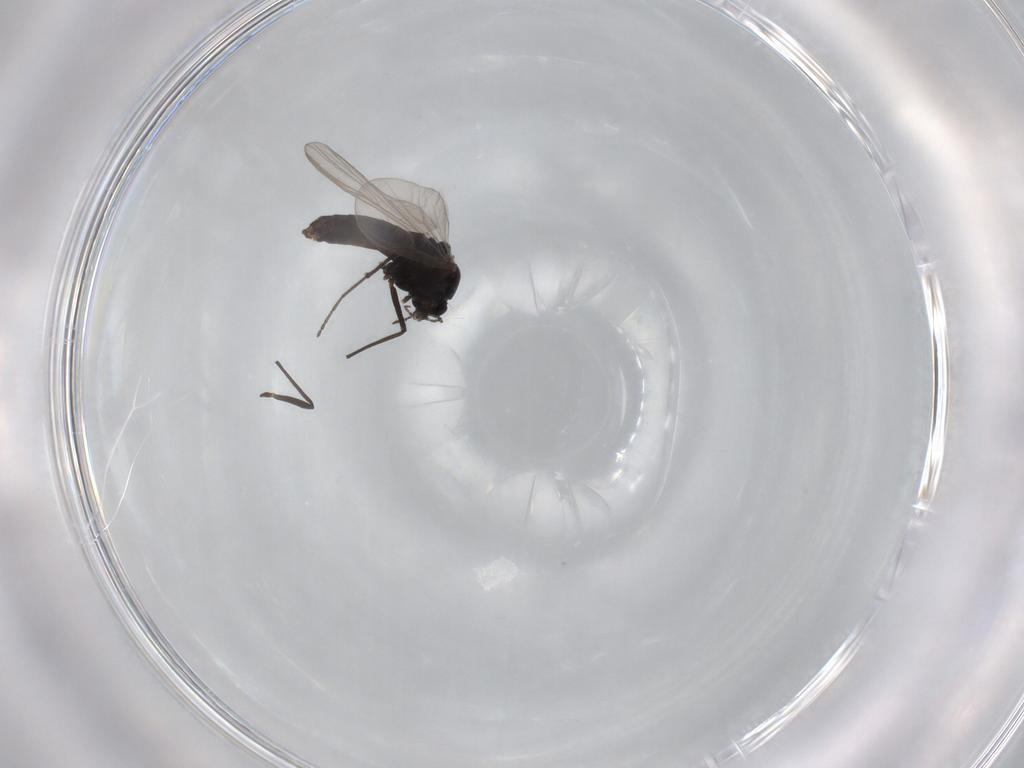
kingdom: Animalia
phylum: Arthropoda
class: Insecta
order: Diptera
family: Chironomidae
